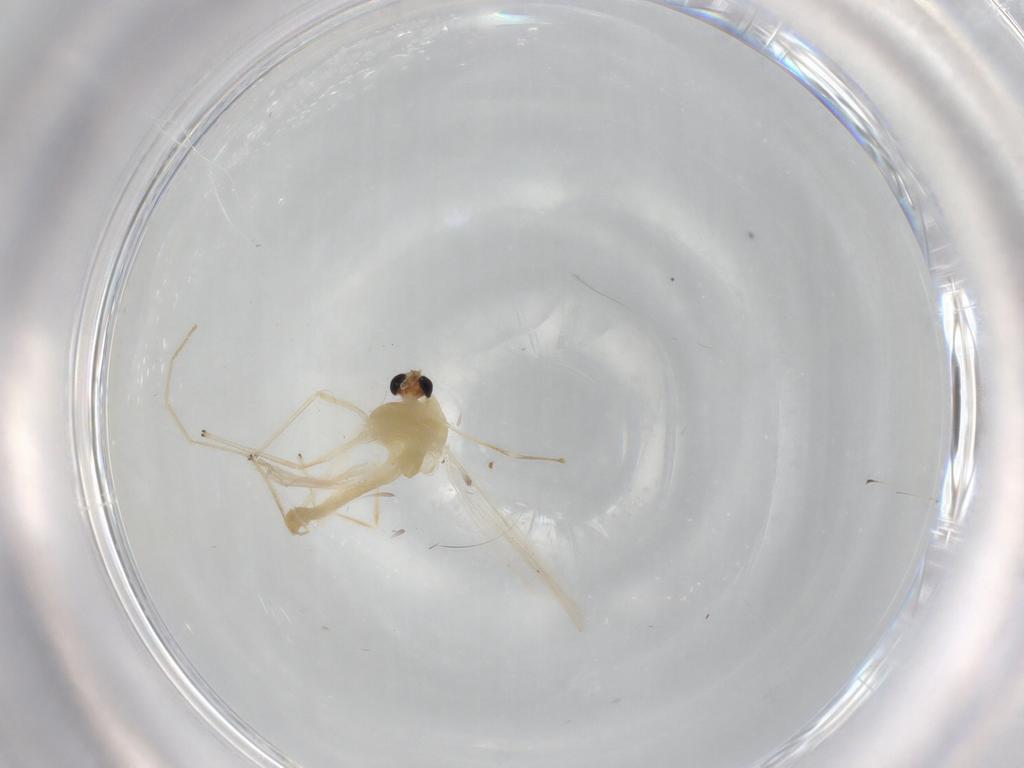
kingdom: Animalia
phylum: Arthropoda
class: Insecta
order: Diptera
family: Chironomidae
